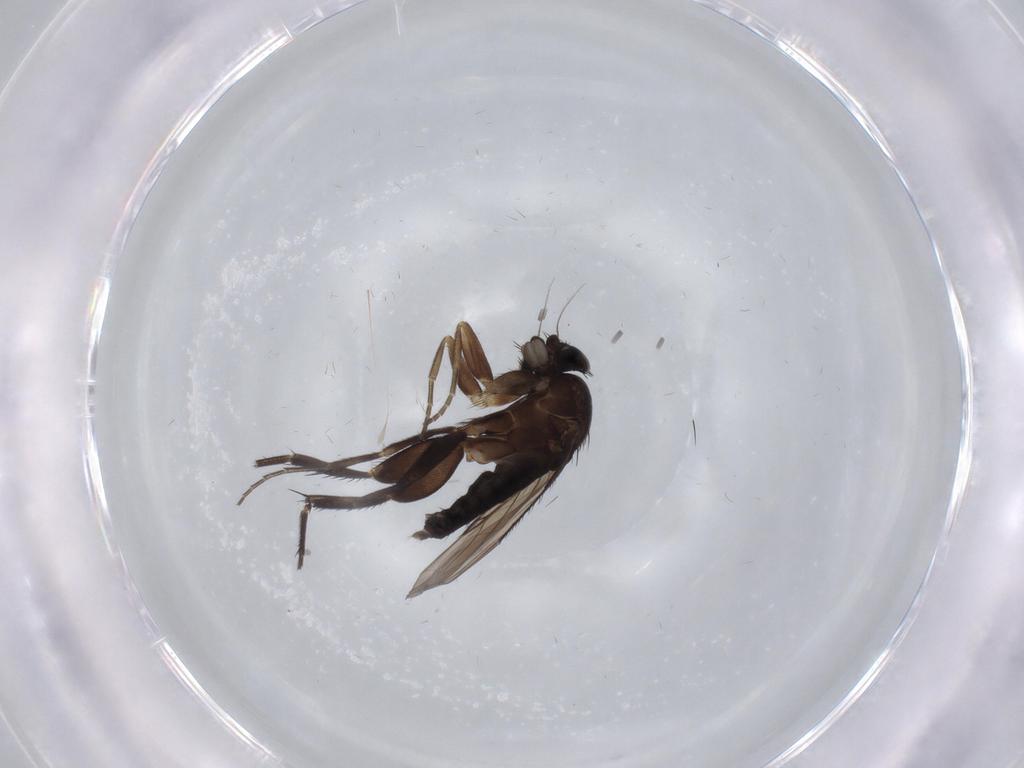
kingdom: Animalia
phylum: Arthropoda
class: Insecta
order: Diptera
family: Phoridae
